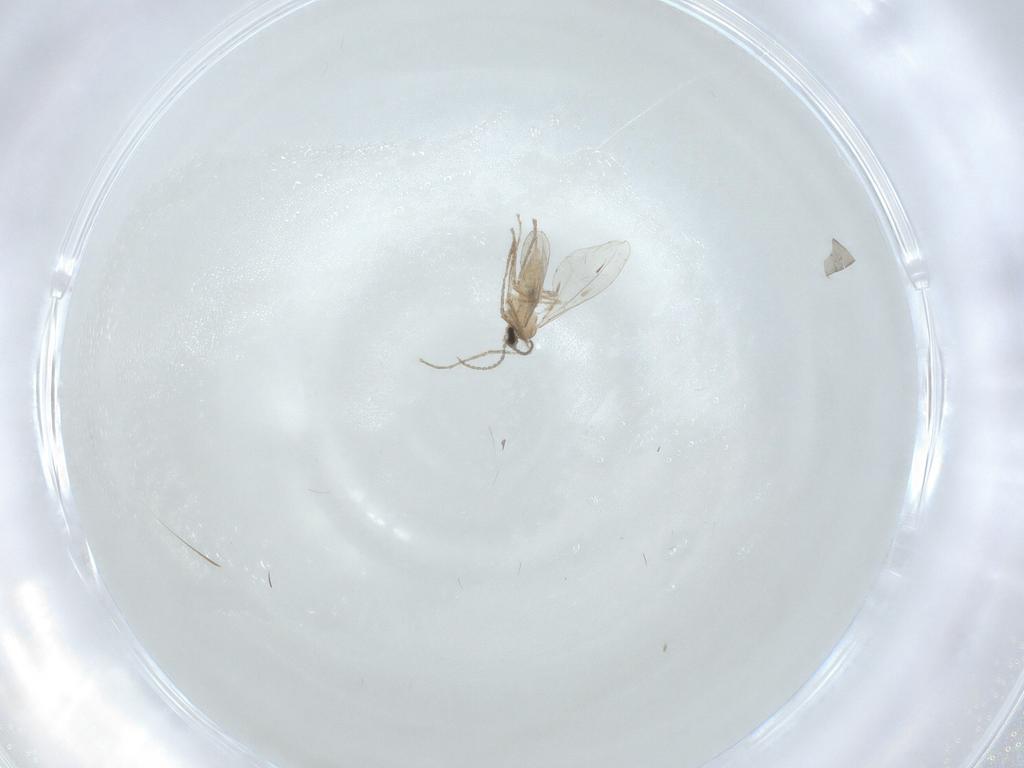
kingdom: Animalia
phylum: Arthropoda
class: Insecta
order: Diptera
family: Cecidomyiidae
